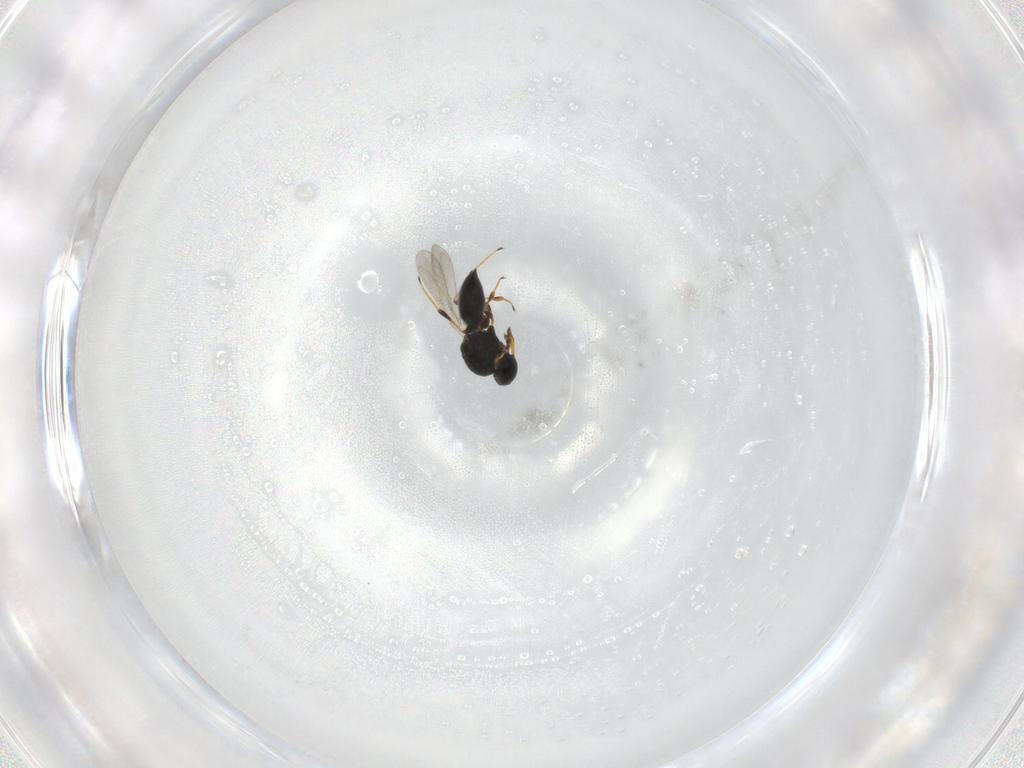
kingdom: Animalia
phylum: Arthropoda
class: Insecta
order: Hymenoptera
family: Platygastridae
